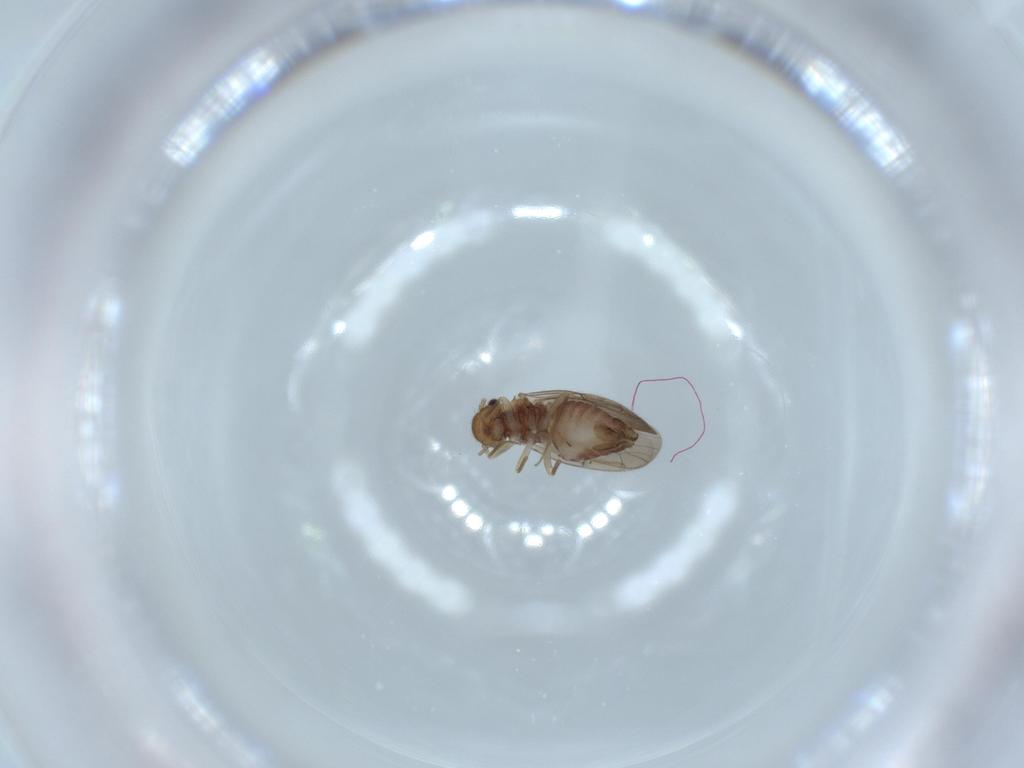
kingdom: Animalia
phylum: Arthropoda
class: Insecta
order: Psocodea
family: Ectopsocidae
